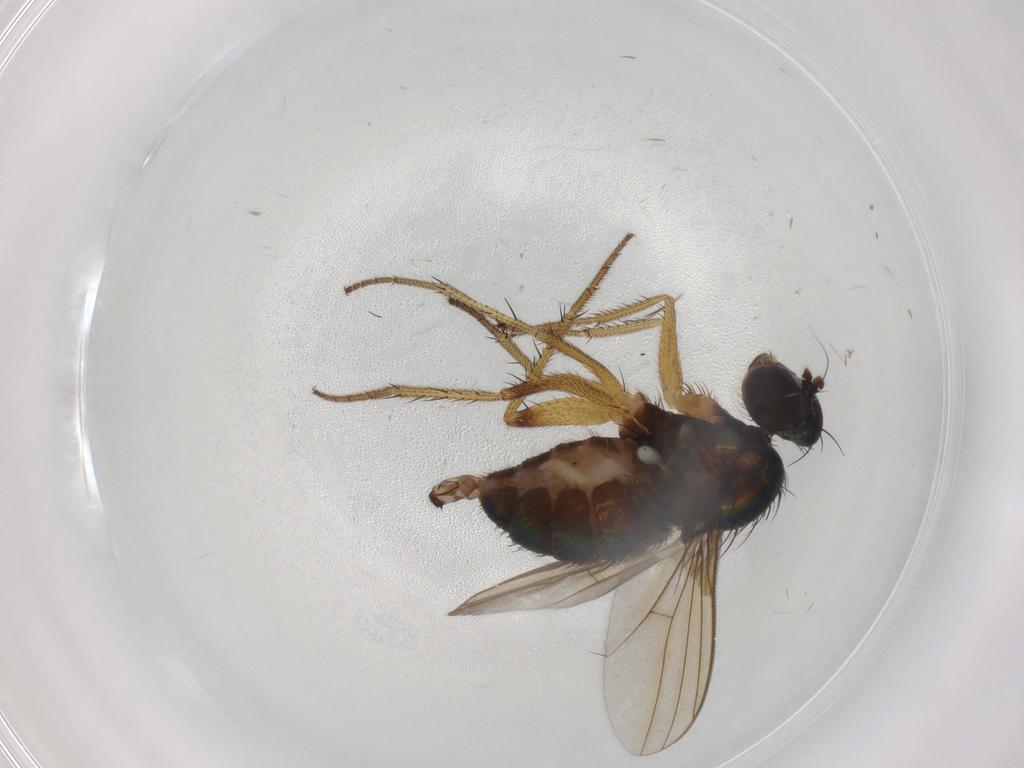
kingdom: Animalia
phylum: Arthropoda
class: Insecta
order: Diptera
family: Dolichopodidae
